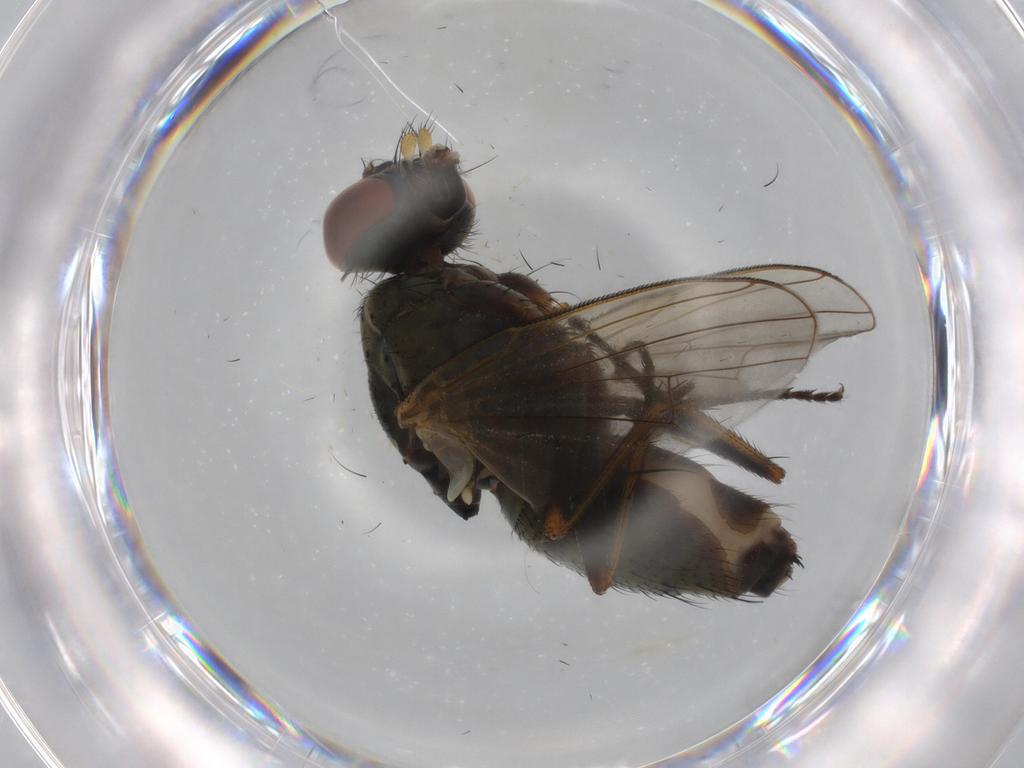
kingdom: Animalia
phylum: Arthropoda
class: Insecta
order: Diptera
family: Muscidae
